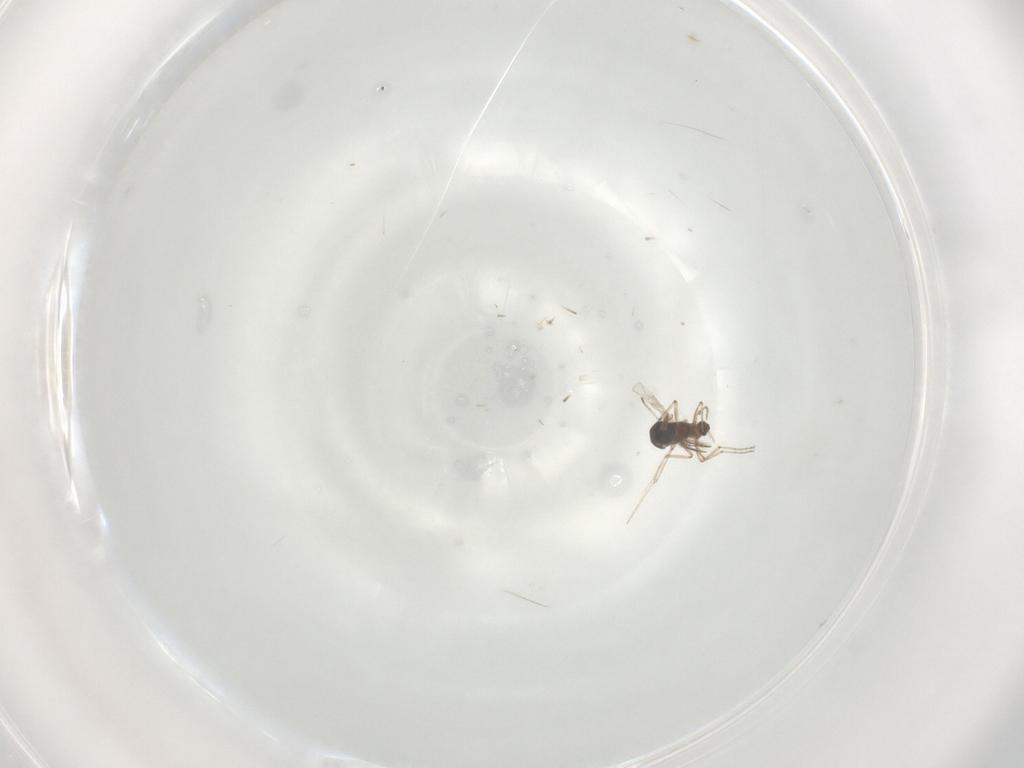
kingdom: Animalia
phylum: Arthropoda
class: Insecta
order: Diptera
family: Ceratopogonidae
